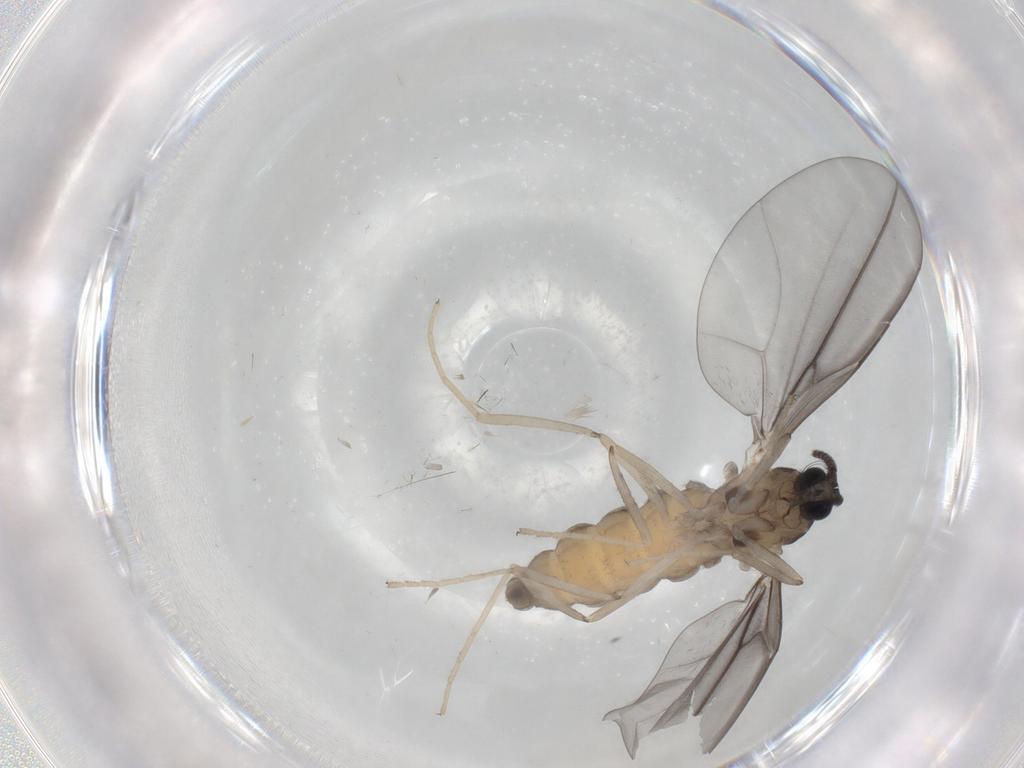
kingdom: Animalia
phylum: Arthropoda
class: Insecta
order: Diptera
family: Cecidomyiidae
